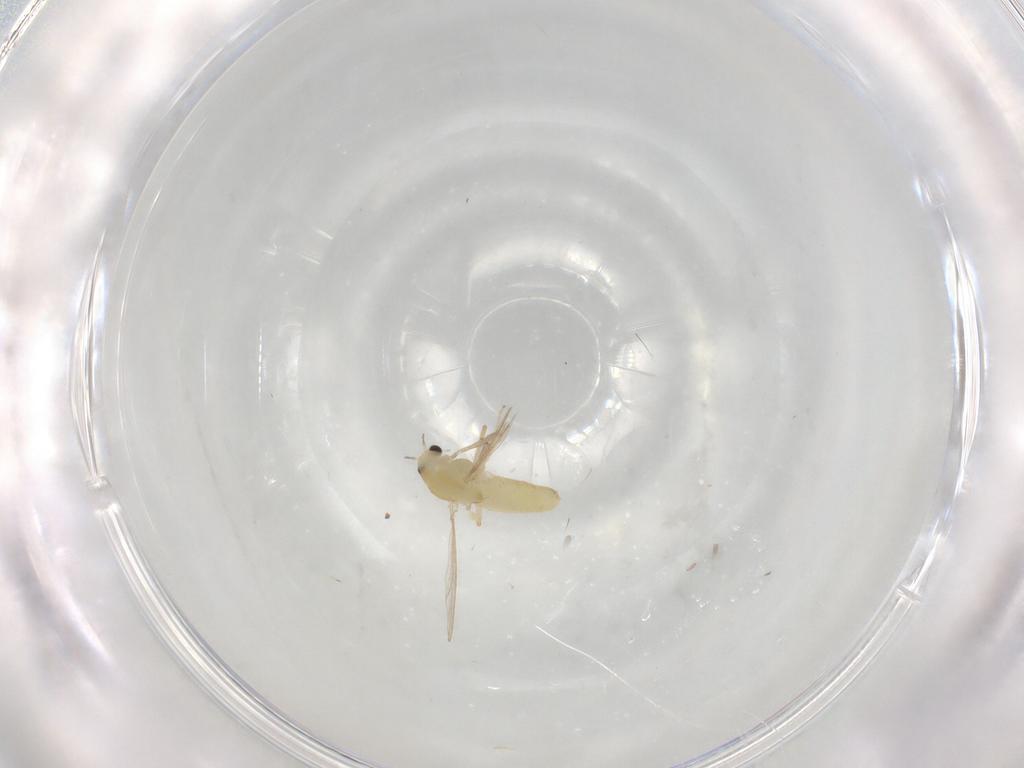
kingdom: Animalia
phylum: Arthropoda
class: Insecta
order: Diptera
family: Chironomidae
